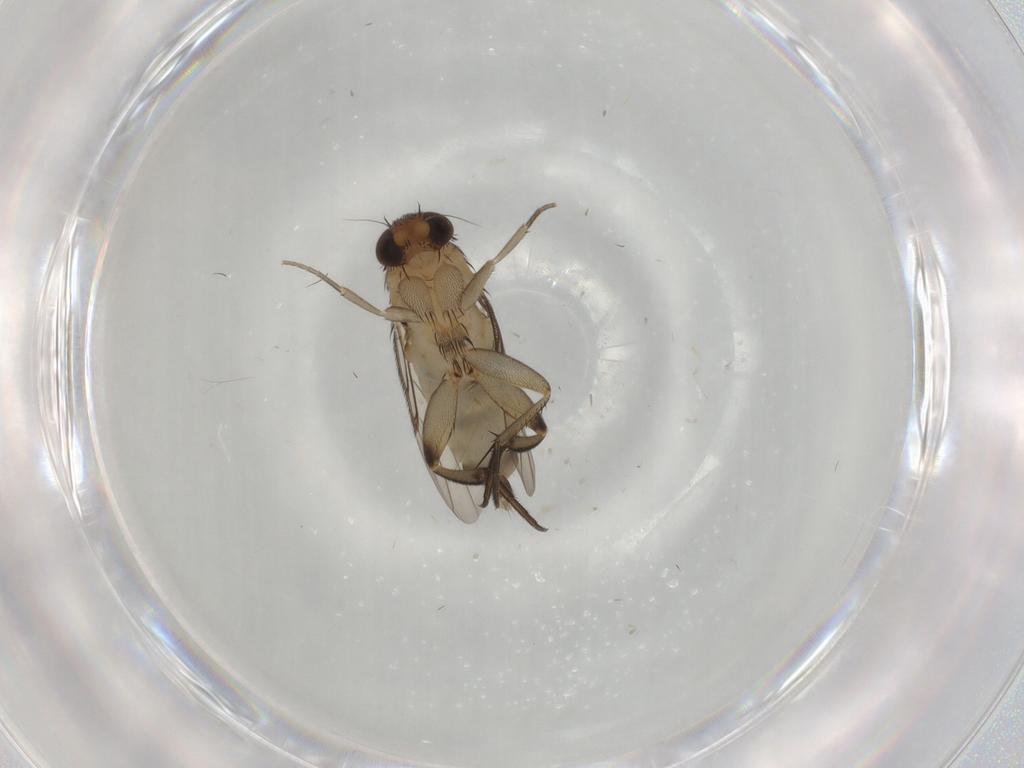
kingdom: Animalia
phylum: Arthropoda
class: Insecta
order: Diptera
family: Phoridae
